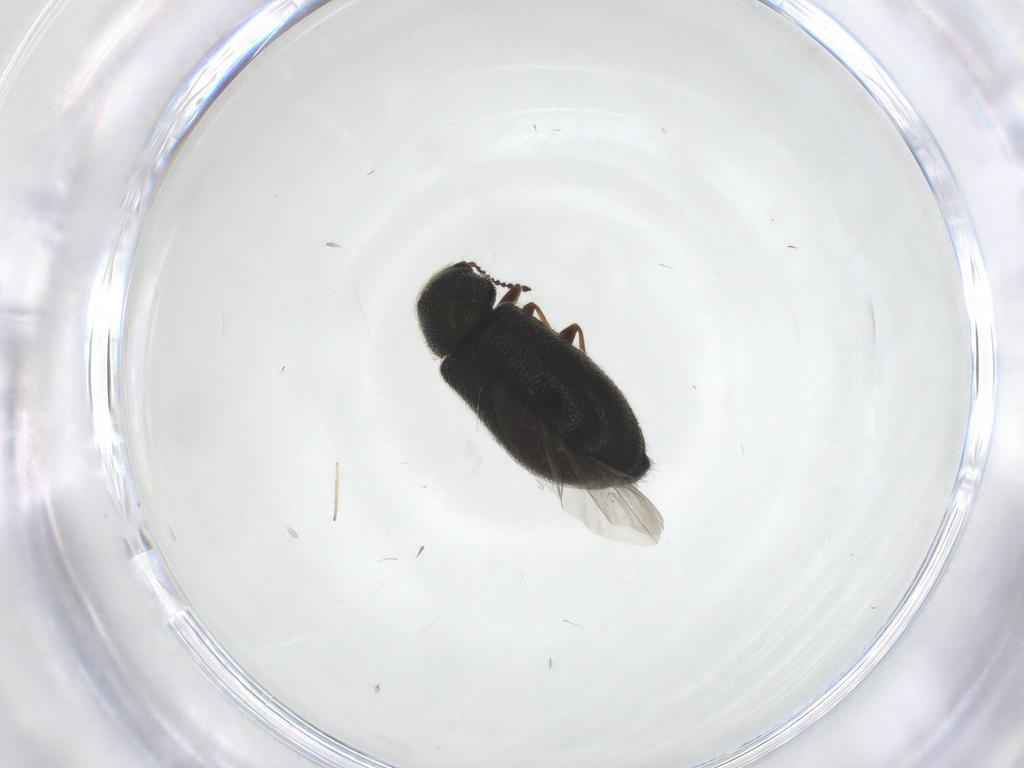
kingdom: Animalia
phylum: Arthropoda
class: Insecta
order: Coleoptera
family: Melyridae
